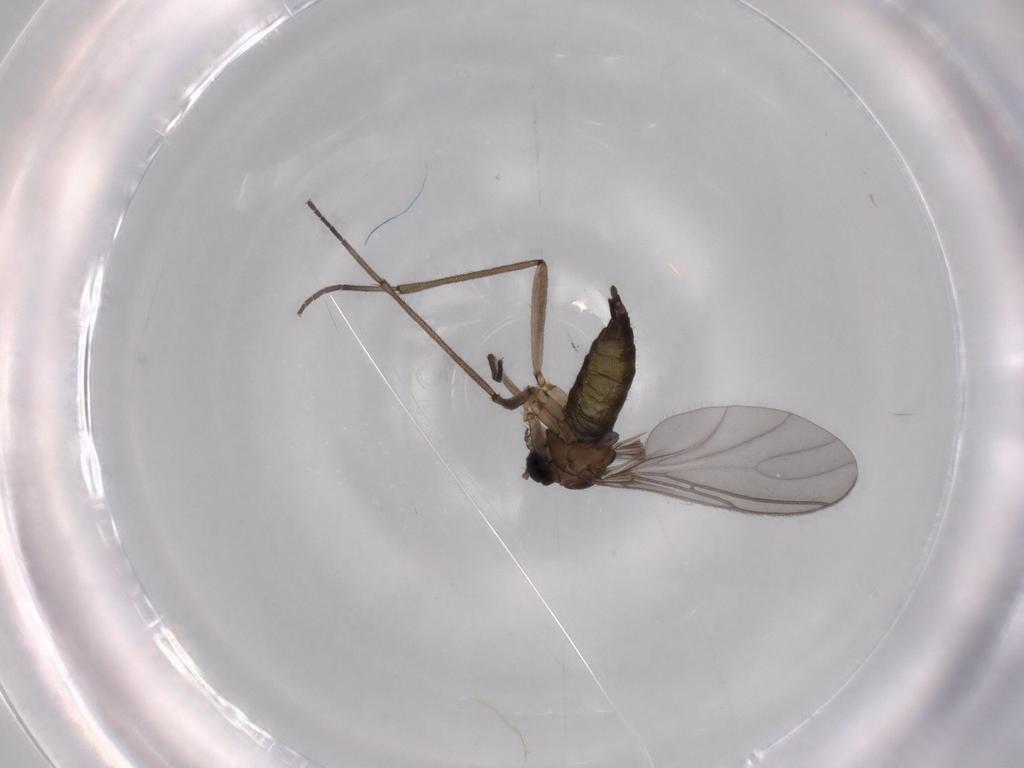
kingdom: Animalia
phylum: Arthropoda
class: Insecta
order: Diptera
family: Sciaridae
